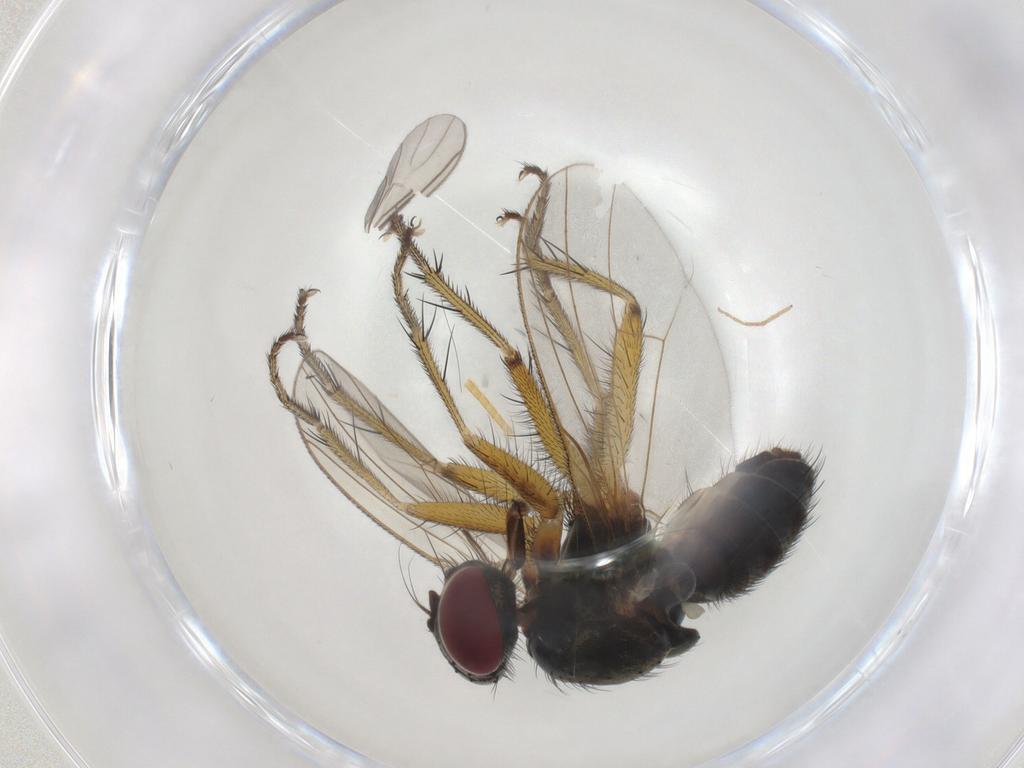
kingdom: Animalia
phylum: Arthropoda
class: Insecta
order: Diptera
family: Muscidae
